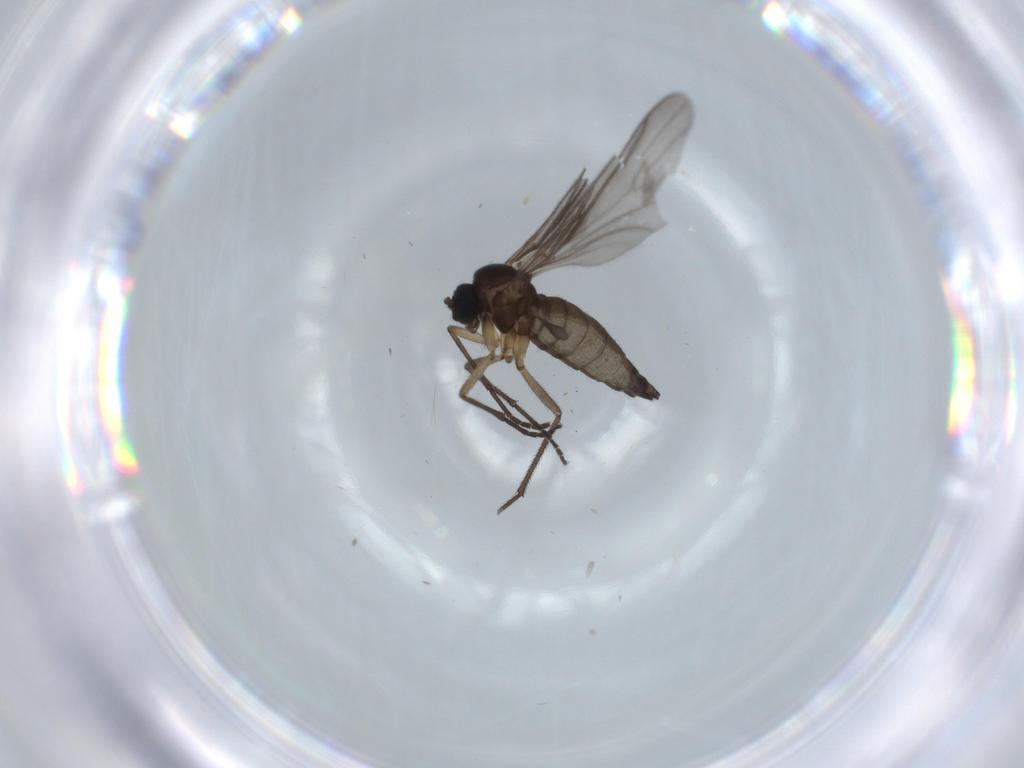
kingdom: Animalia
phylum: Arthropoda
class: Insecta
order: Diptera
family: Sciaridae
